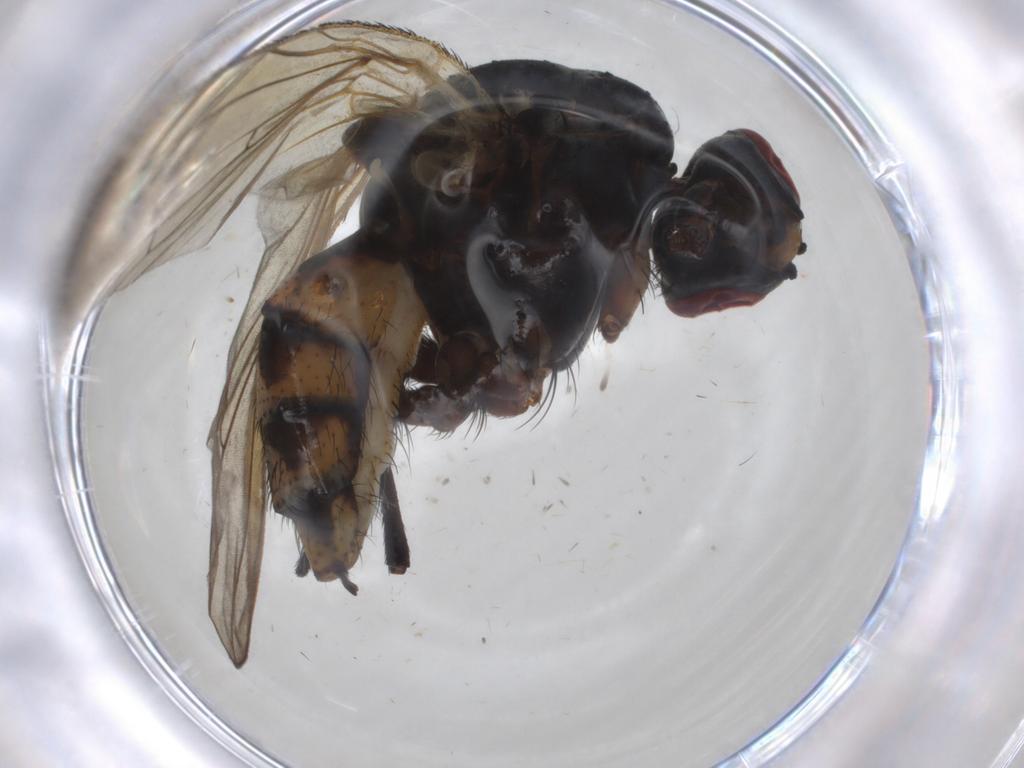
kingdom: Animalia
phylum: Arthropoda
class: Insecta
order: Diptera
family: Anthomyiidae
